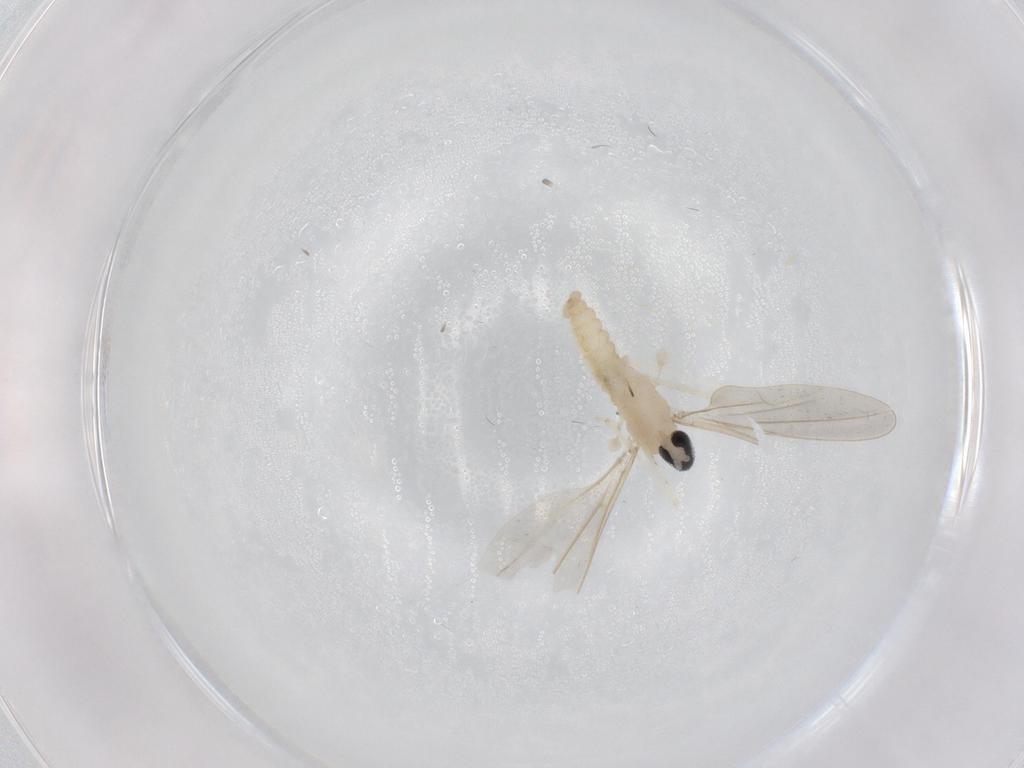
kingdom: Animalia
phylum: Arthropoda
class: Insecta
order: Diptera
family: Cecidomyiidae
